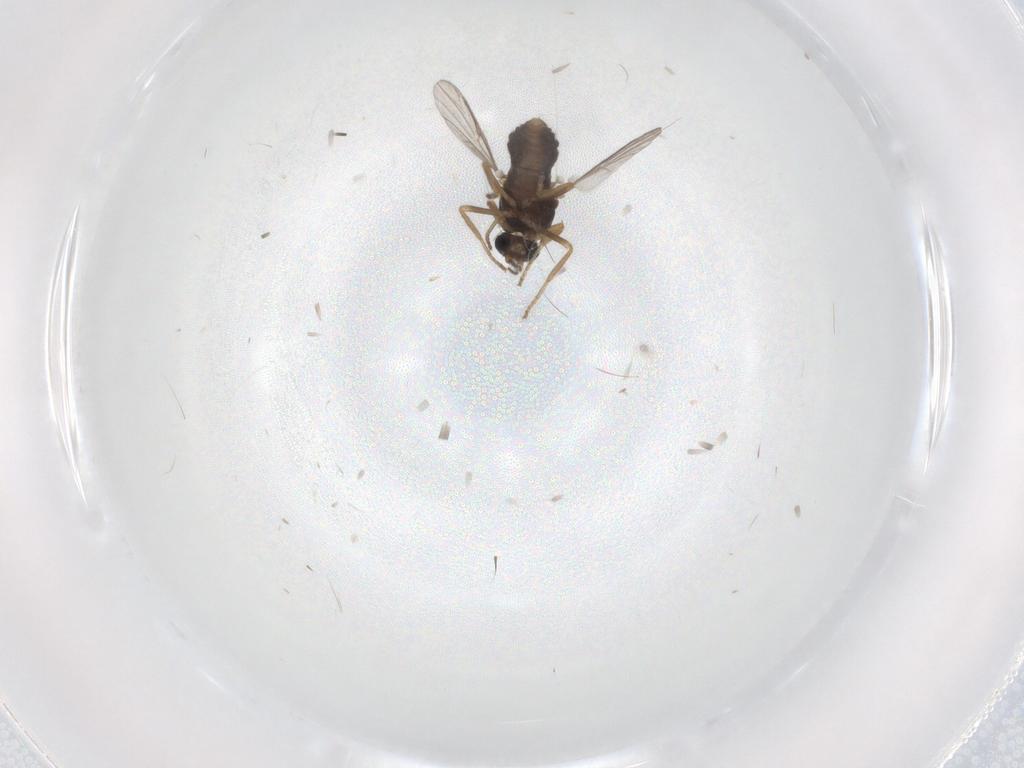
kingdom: Animalia
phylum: Arthropoda
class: Insecta
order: Diptera
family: Ceratopogonidae
